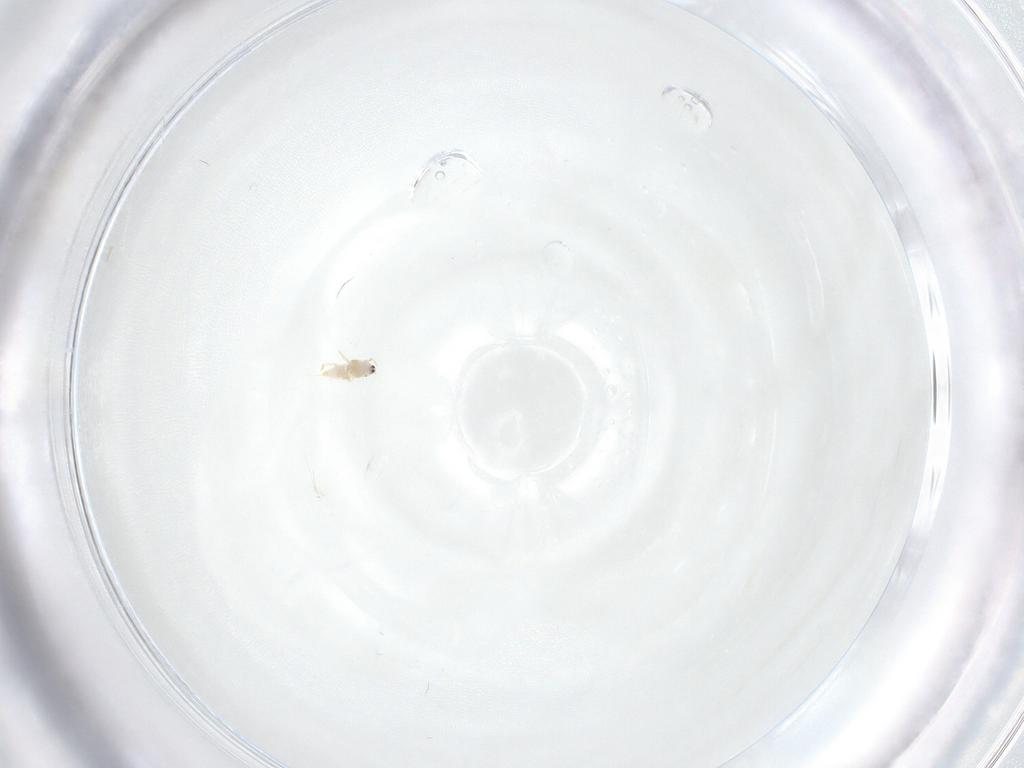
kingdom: Animalia
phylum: Arthropoda
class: Insecta
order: Hemiptera
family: Diaspididae
